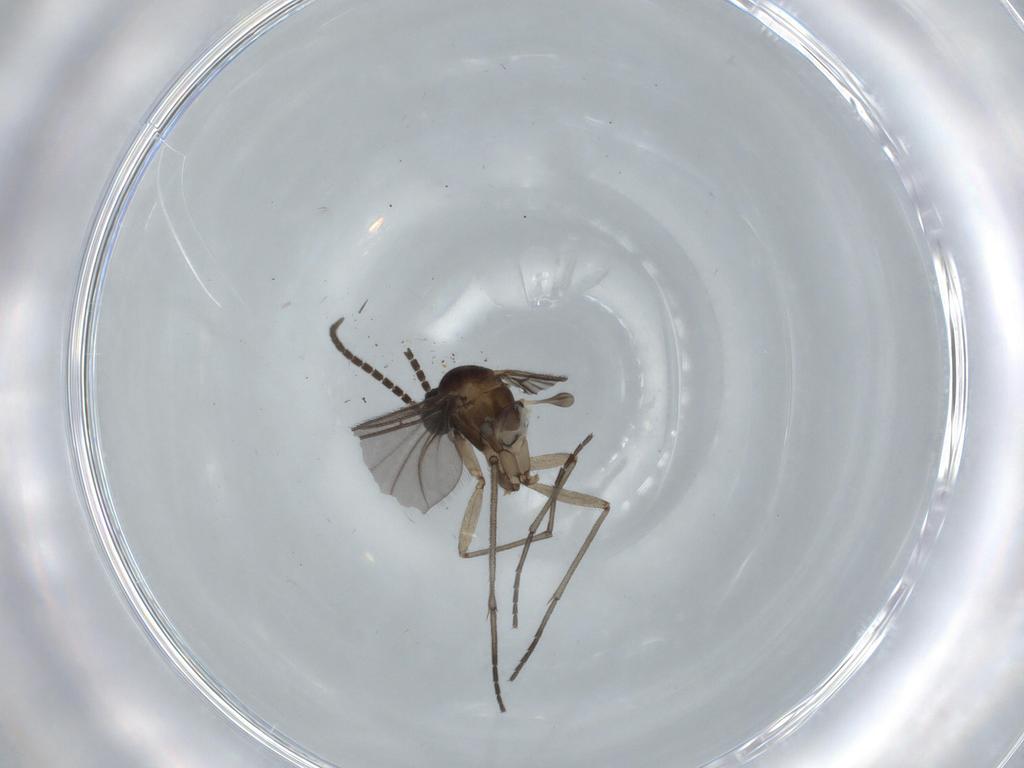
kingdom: Animalia
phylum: Arthropoda
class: Insecta
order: Diptera
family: Sciaridae
